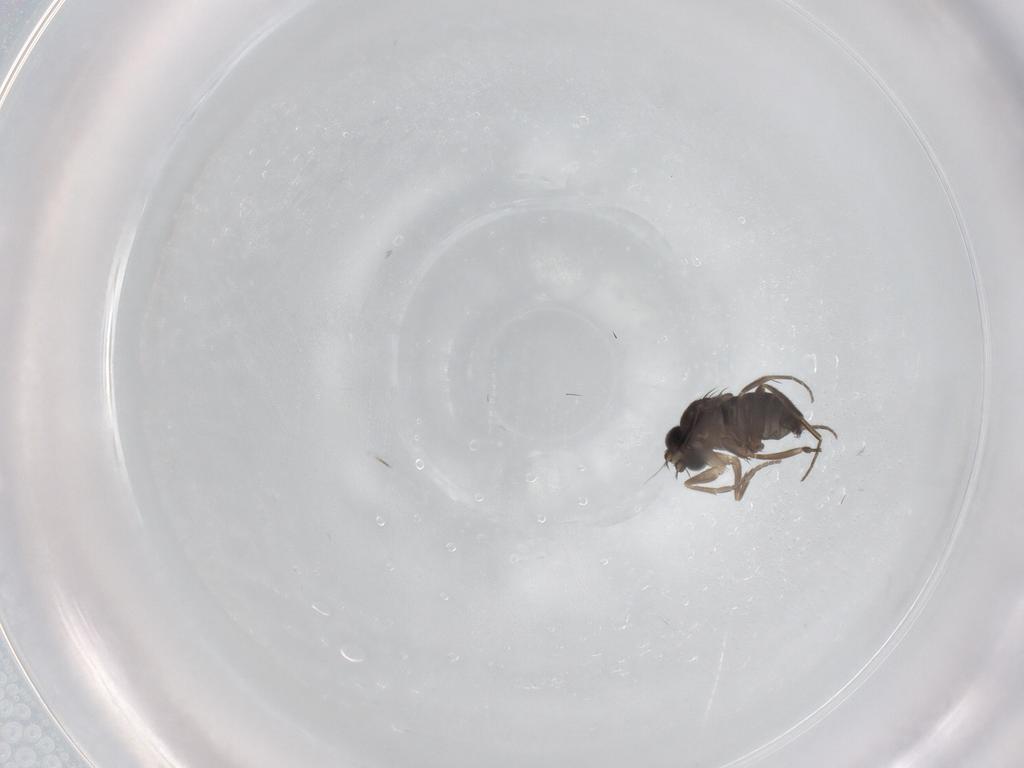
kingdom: Animalia
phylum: Arthropoda
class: Insecta
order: Diptera
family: Phoridae
